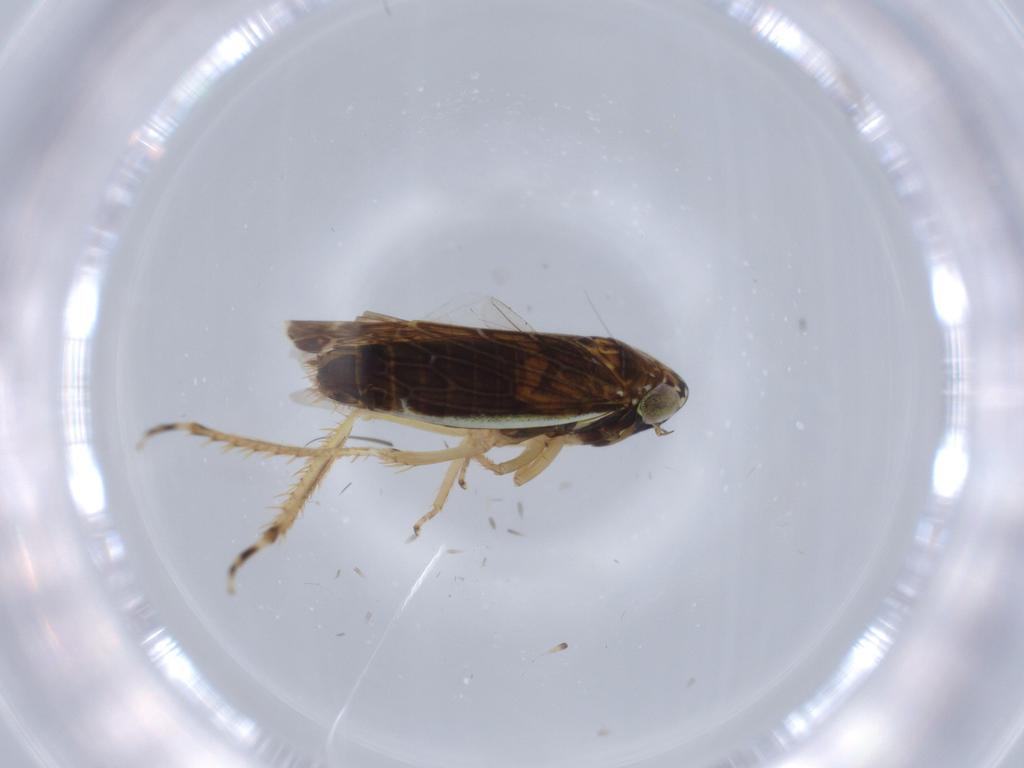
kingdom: Animalia
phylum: Arthropoda
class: Insecta
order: Hemiptera
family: Cicadellidae
